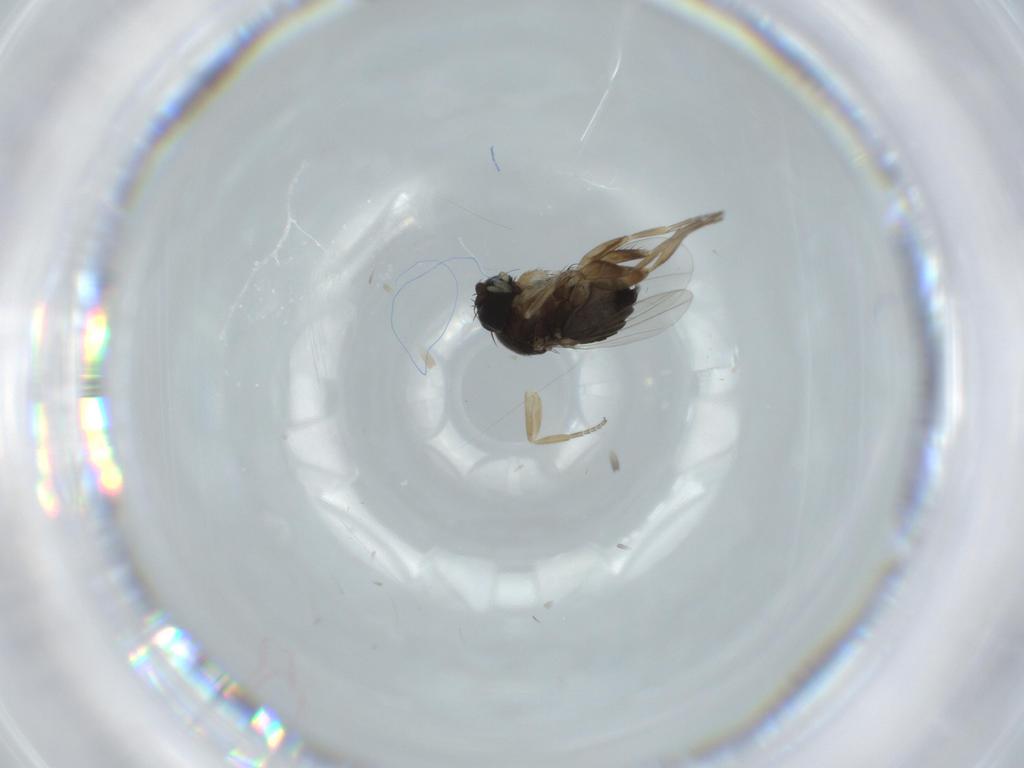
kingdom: Animalia
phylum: Arthropoda
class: Insecta
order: Diptera
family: Phoridae
